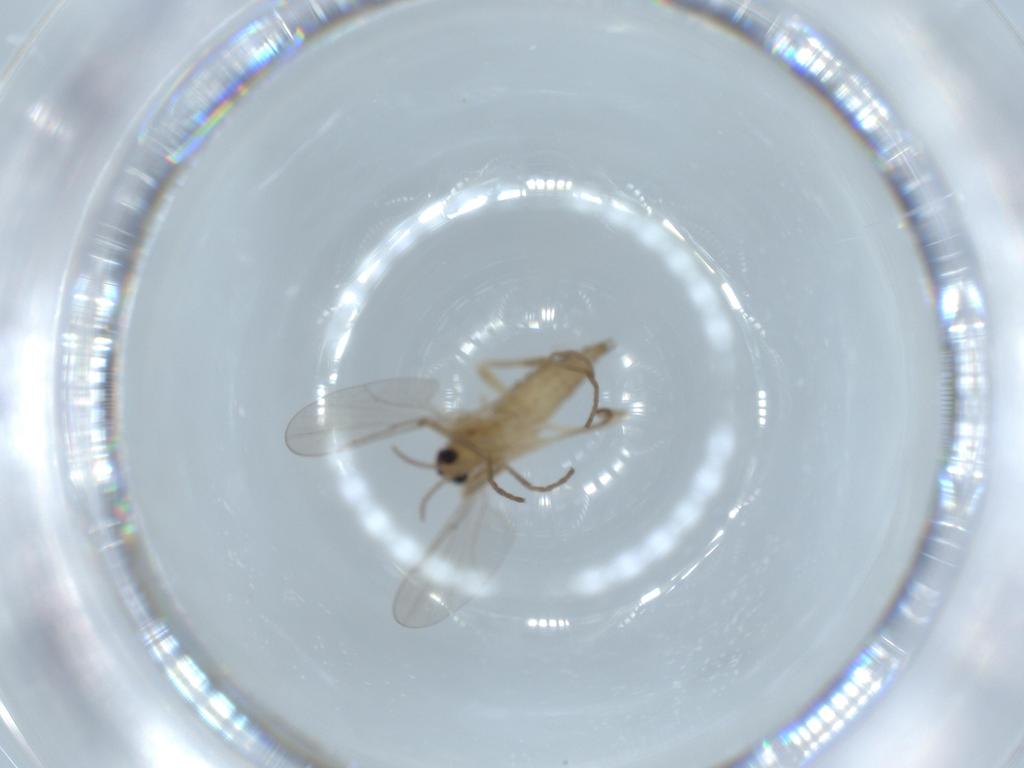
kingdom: Animalia
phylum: Arthropoda
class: Insecta
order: Diptera
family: Cecidomyiidae
